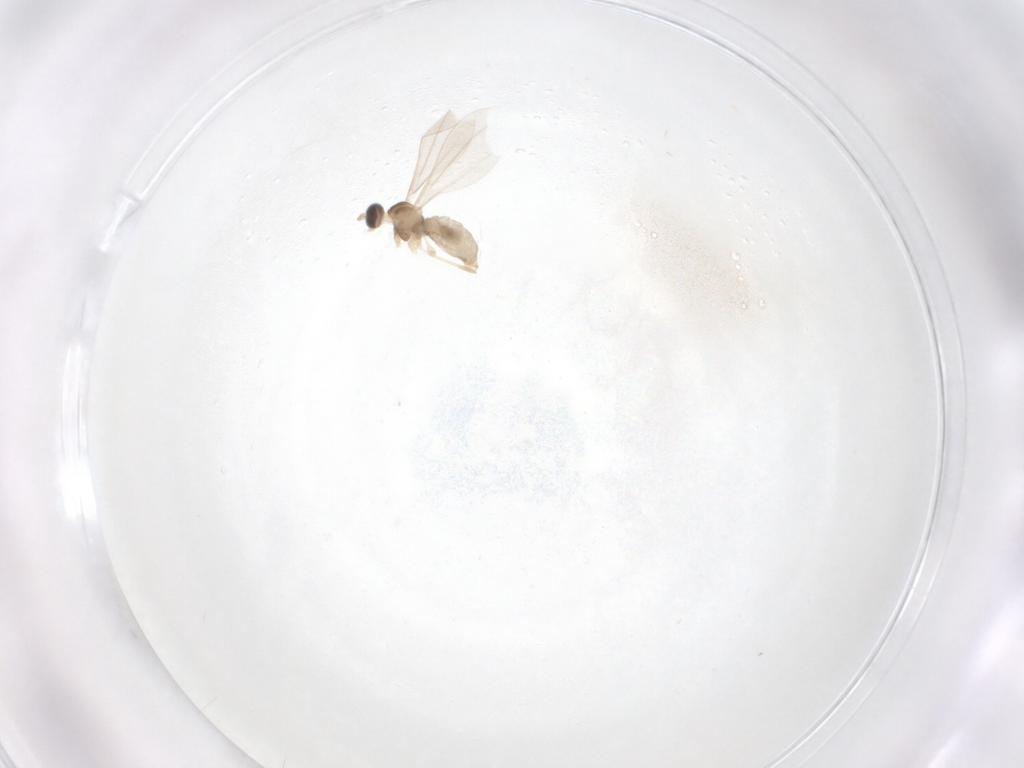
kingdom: Animalia
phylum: Arthropoda
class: Insecta
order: Diptera
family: Cecidomyiidae
